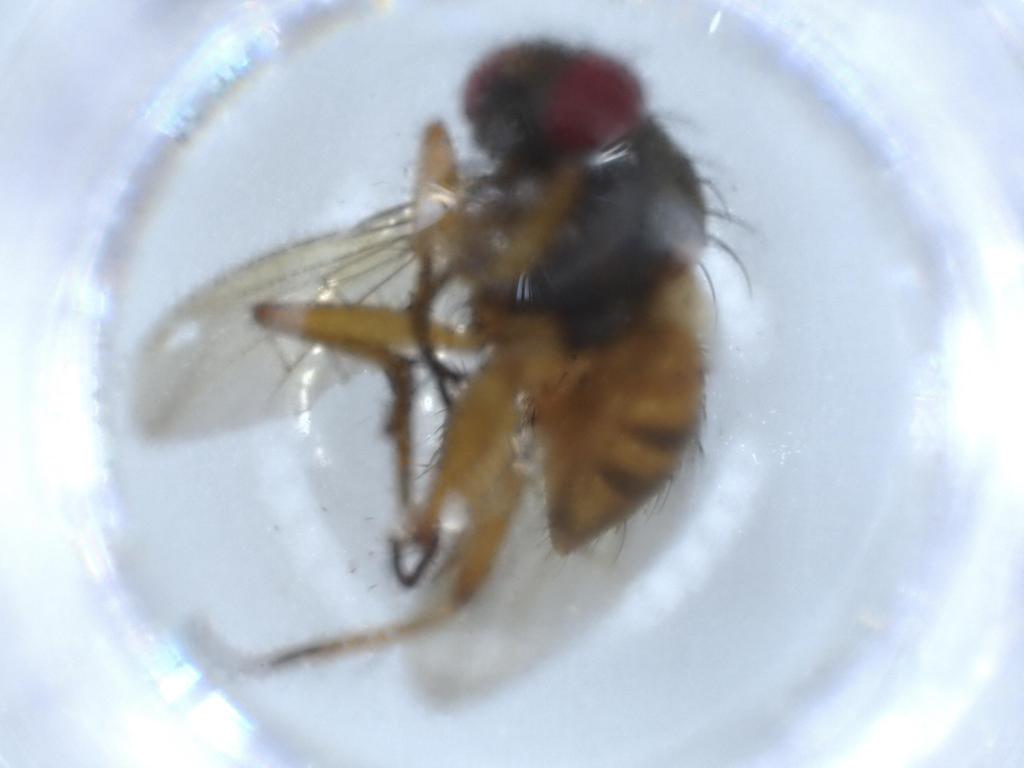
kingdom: Animalia
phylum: Arthropoda
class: Insecta
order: Diptera
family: Muscidae
